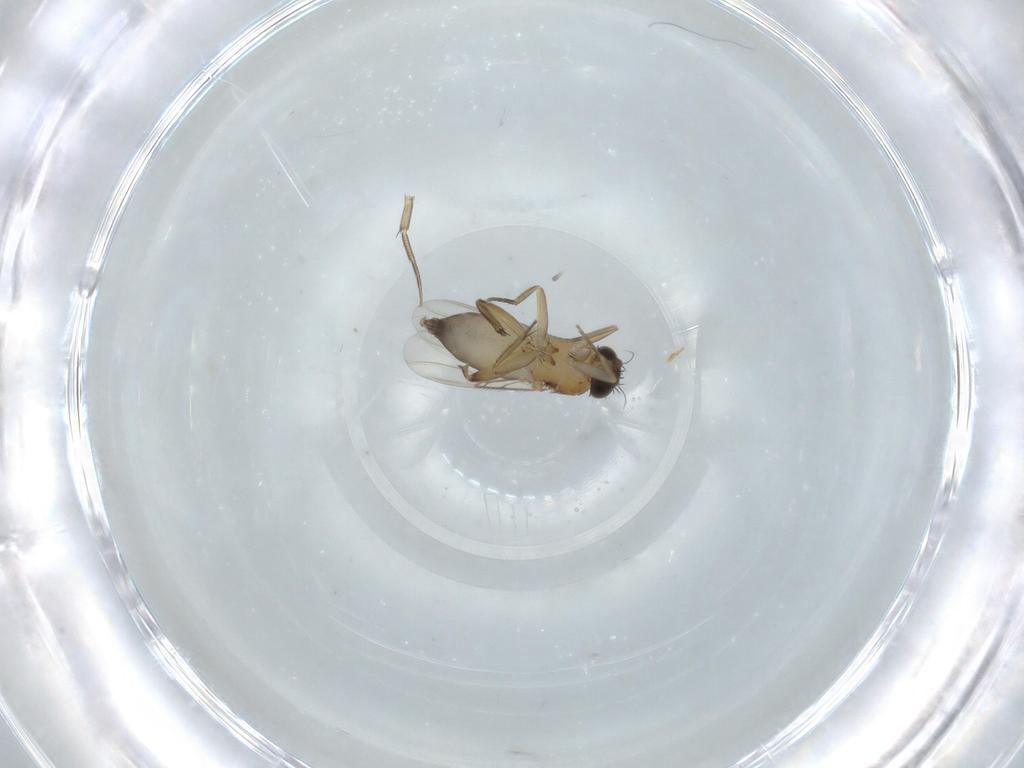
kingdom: Animalia
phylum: Arthropoda
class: Insecta
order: Diptera
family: Phoridae
